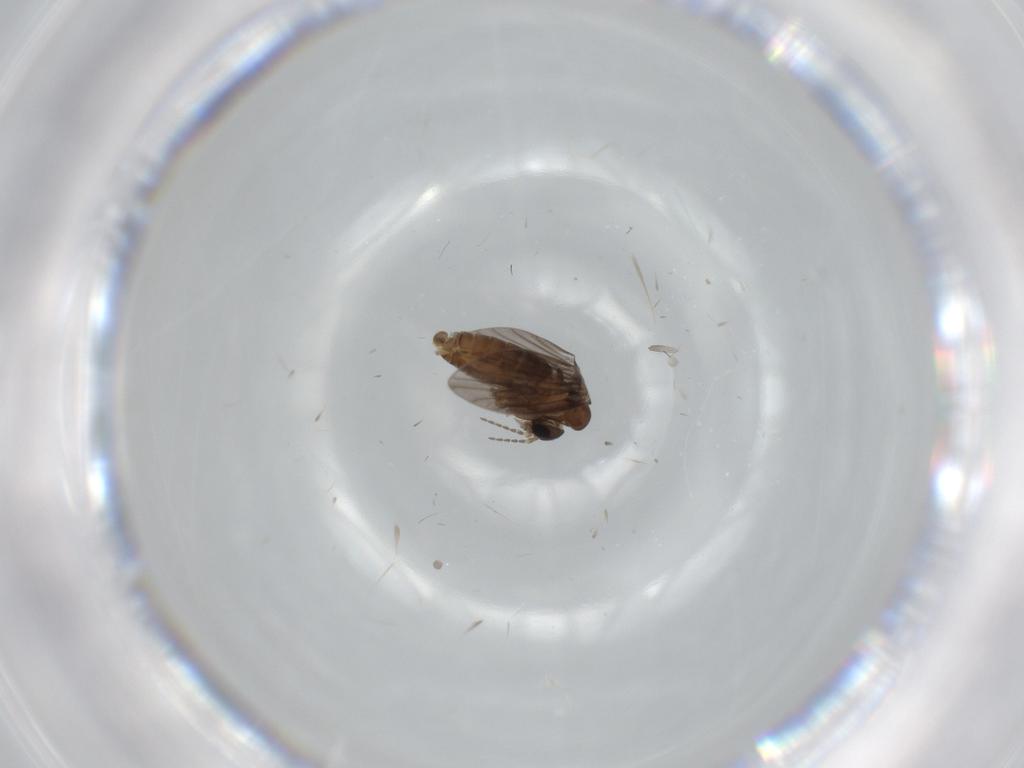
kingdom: Animalia
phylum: Arthropoda
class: Insecta
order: Diptera
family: Psychodidae
